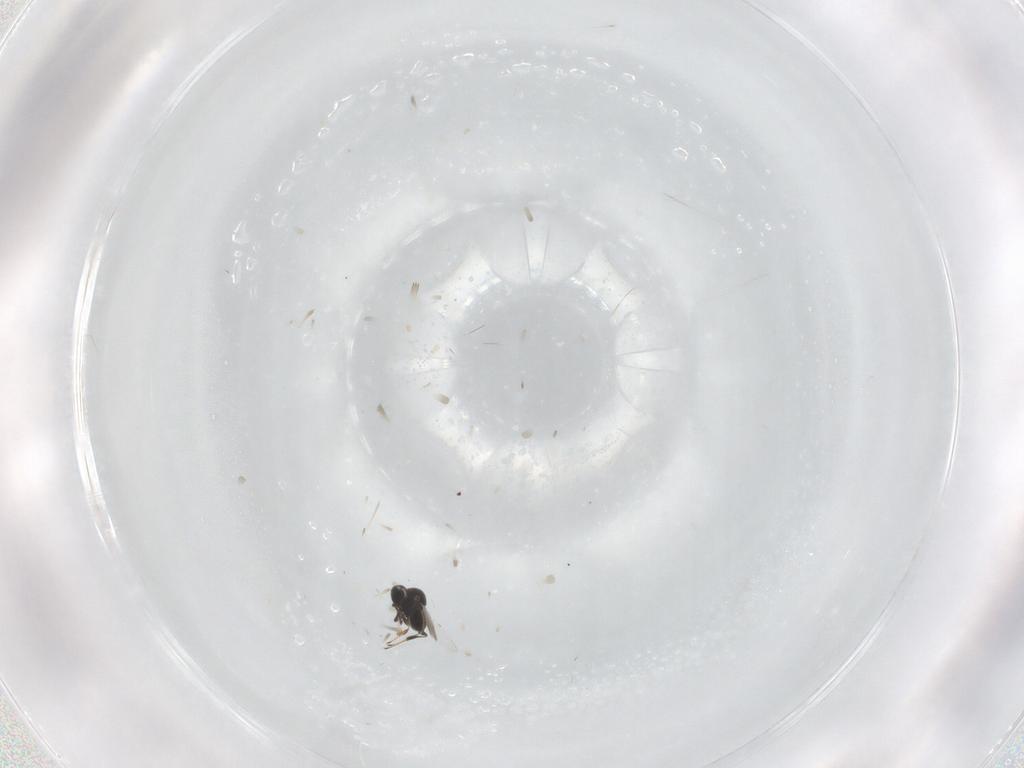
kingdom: Animalia
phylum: Arthropoda
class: Insecta
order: Hymenoptera
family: Platygastridae
